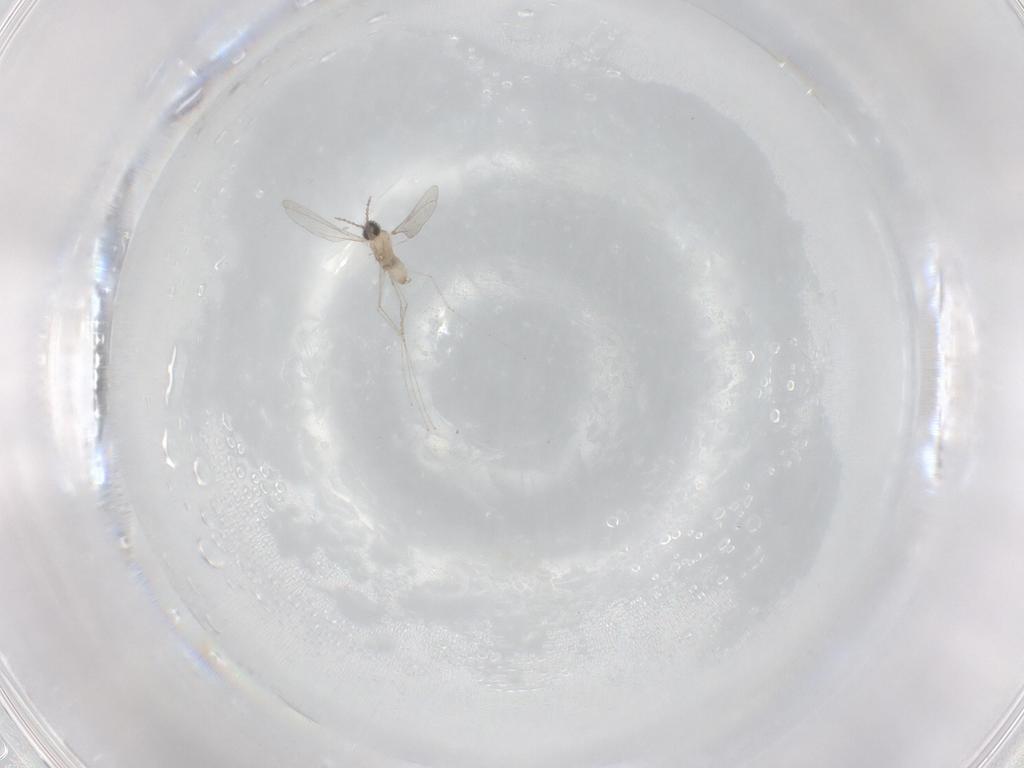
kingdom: Animalia
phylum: Arthropoda
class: Insecta
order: Diptera
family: Cecidomyiidae
